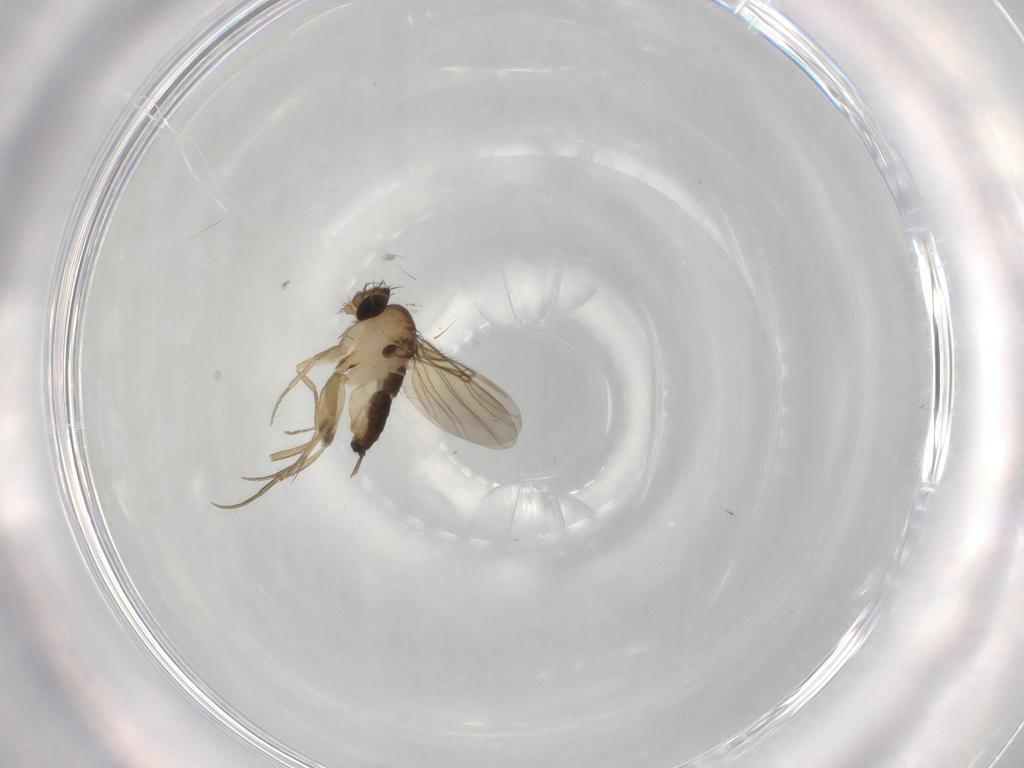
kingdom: Animalia
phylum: Arthropoda
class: Insecta
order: Diptera
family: Phoridae
